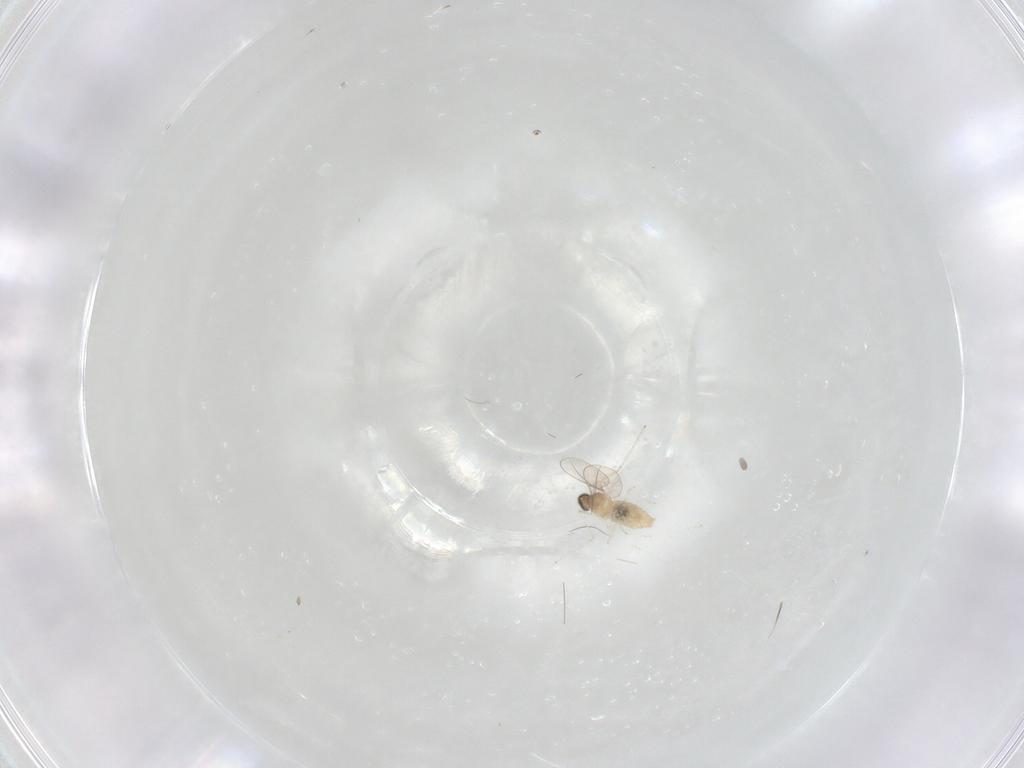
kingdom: Animalia
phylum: Arthropoda
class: Insecta
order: Diptera
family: Cecidomyiidae
